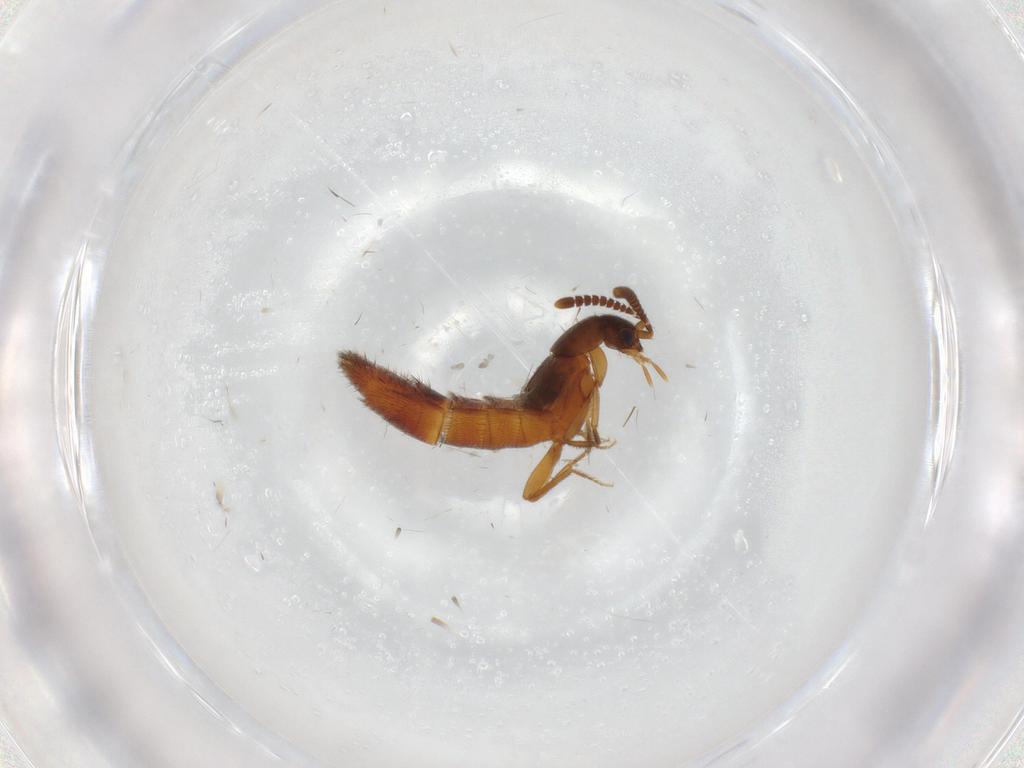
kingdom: Animalia
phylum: Arthropoda
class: Insecta
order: Coleoptera
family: Staphylinidae
